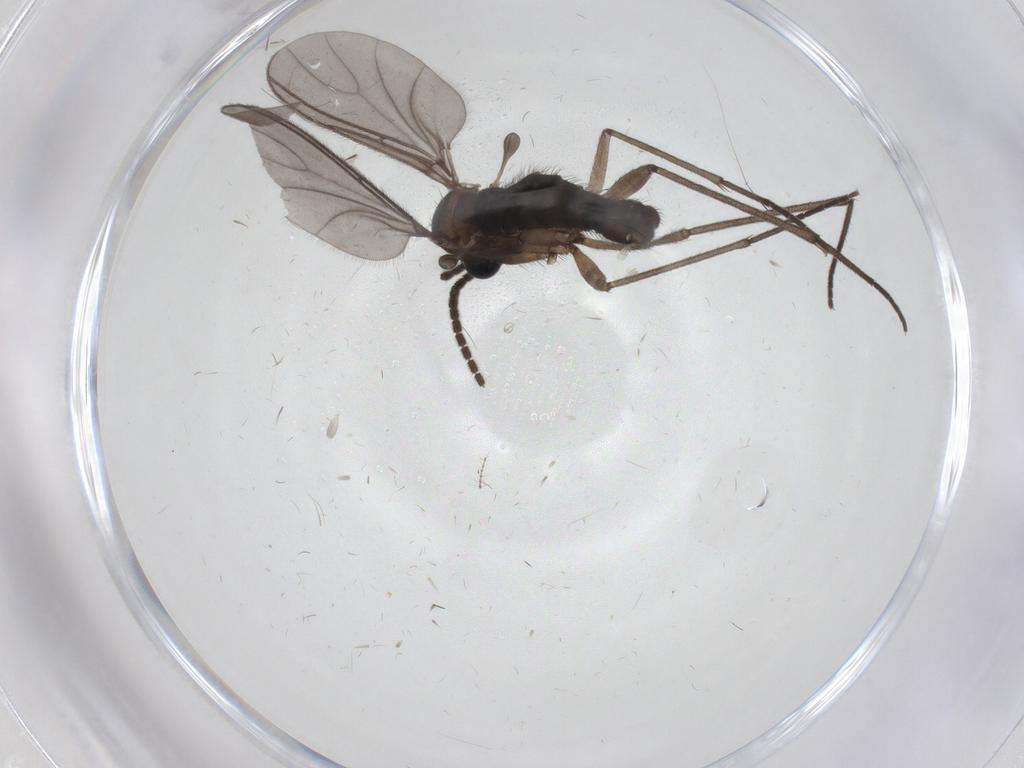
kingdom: Animalia
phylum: Arthropoda
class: Insecta
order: Diptera
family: Sciaridae
